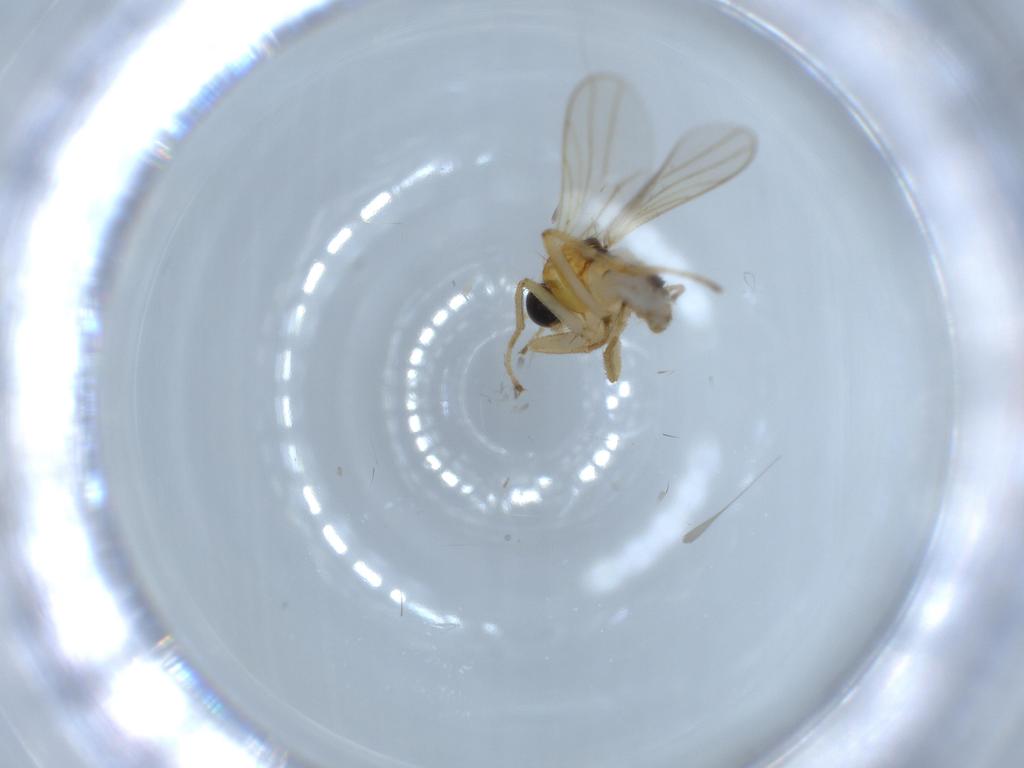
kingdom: Animalia
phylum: Arthropoda
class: Insecta
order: Diptera
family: Hybotidae
